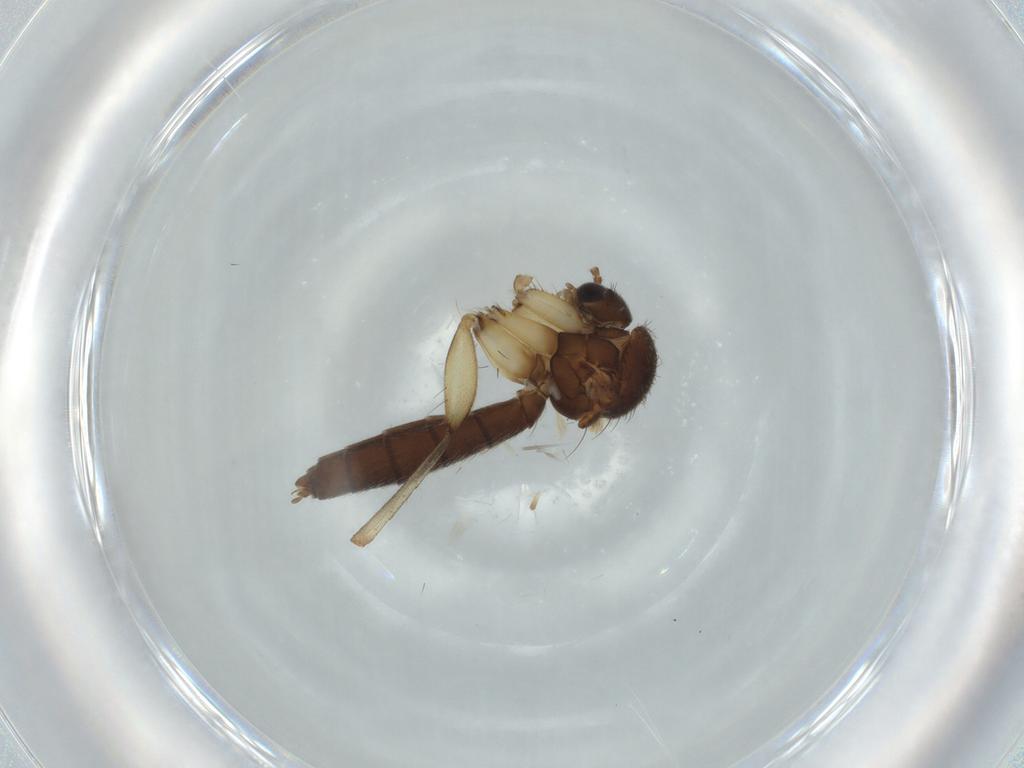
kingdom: Animalia
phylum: Arthropoda
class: Insecta
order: Diptera
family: Mycetophilidae
